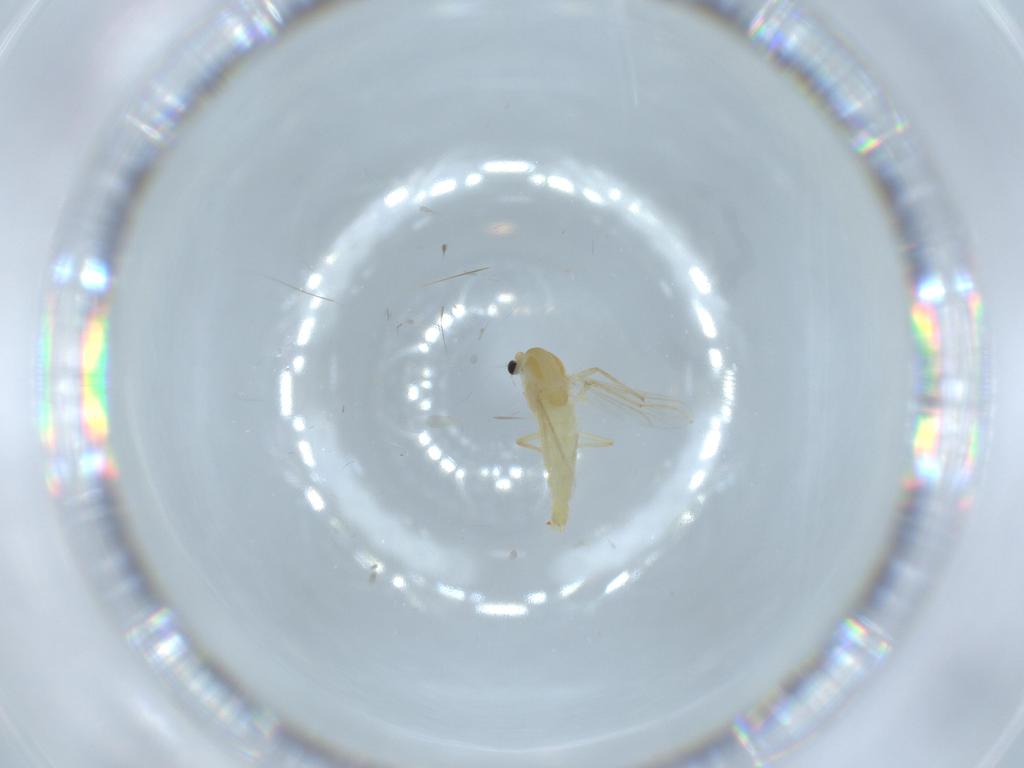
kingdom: Animalia
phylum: Arthropoda
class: Insecta
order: Diptera
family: Chironomidae
